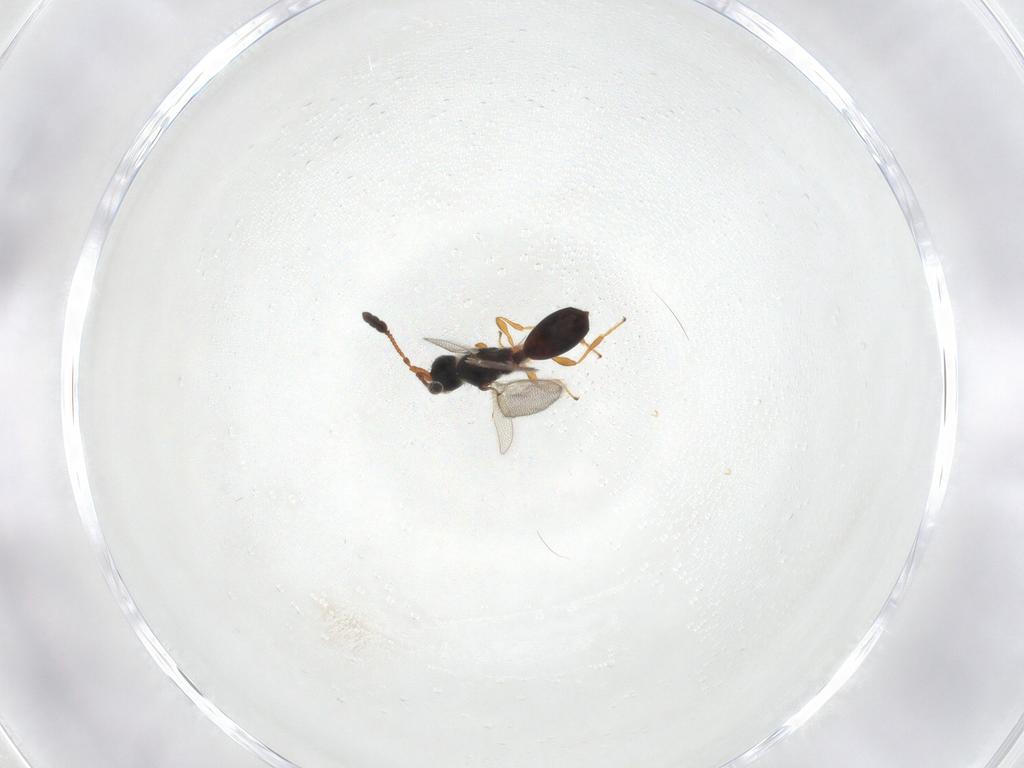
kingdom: Animalia
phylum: Arthropoda
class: Insecta
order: Hymenoptera
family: Diapriidae
